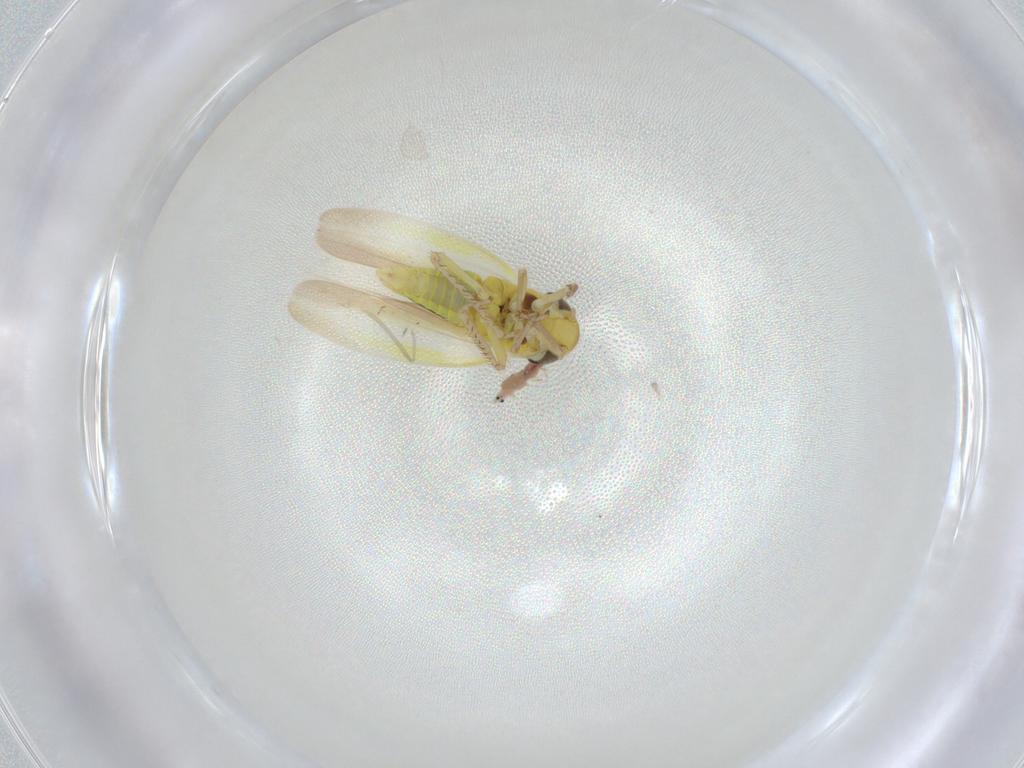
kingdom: Animalia
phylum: Arthropoda
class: Insecta
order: Hemiptera
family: Cicadellidae
